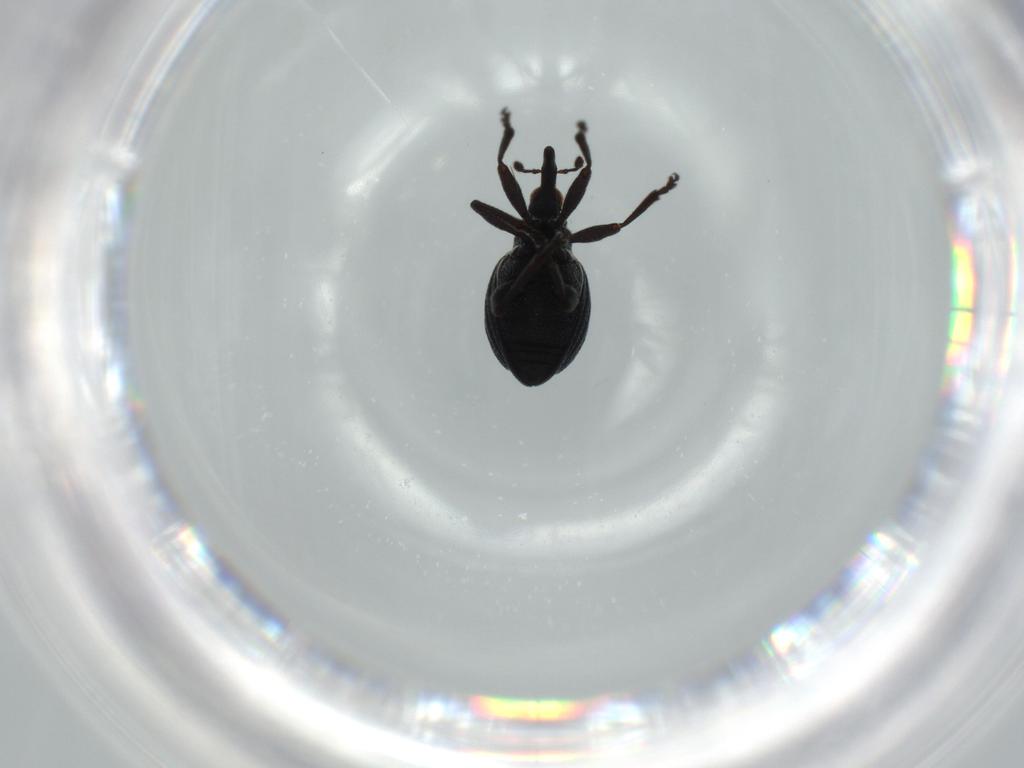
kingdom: Animalia
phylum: Arthropoda
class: Insecta
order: Coleoptera
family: Brentidae
